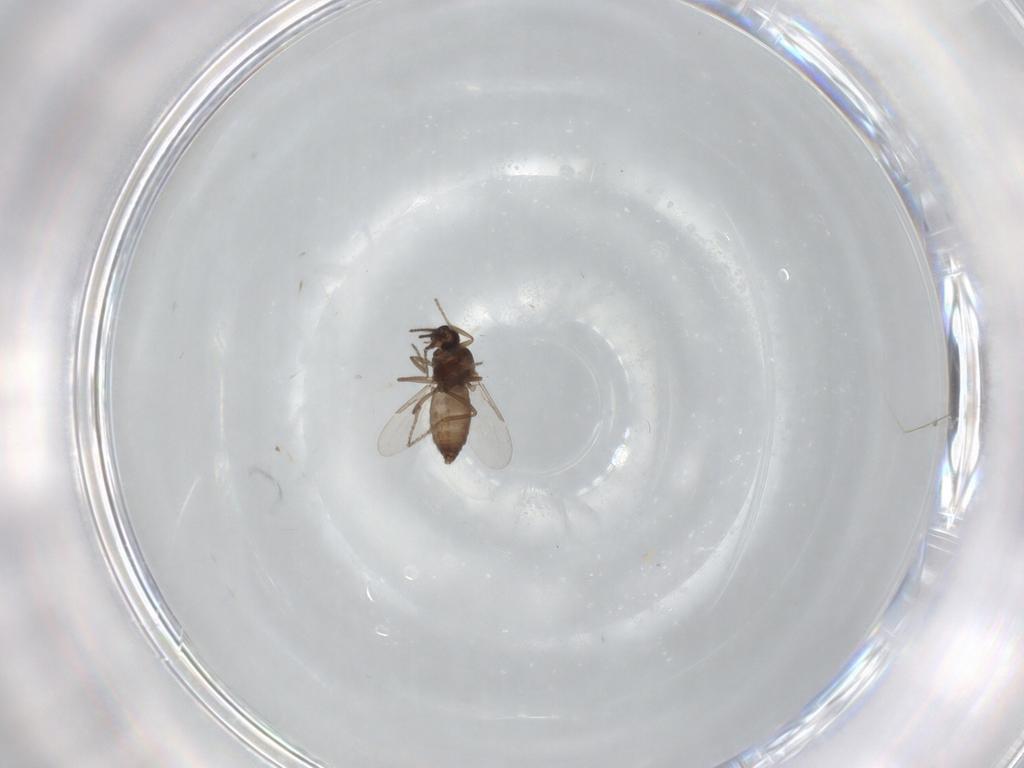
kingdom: Animalia
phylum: Arthropoda
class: Insecta
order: Diptera
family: Ceratopogonidae
